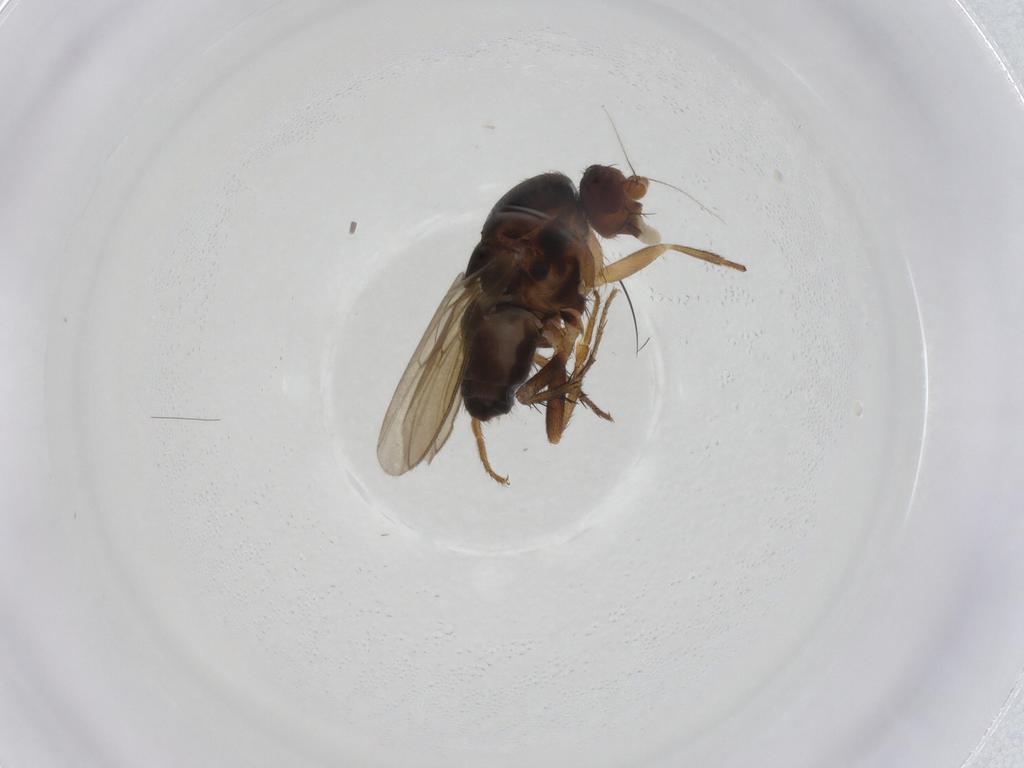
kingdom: Animalia
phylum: Arthropoda
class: Insecta
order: Diptera
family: Sphaeroceridae
